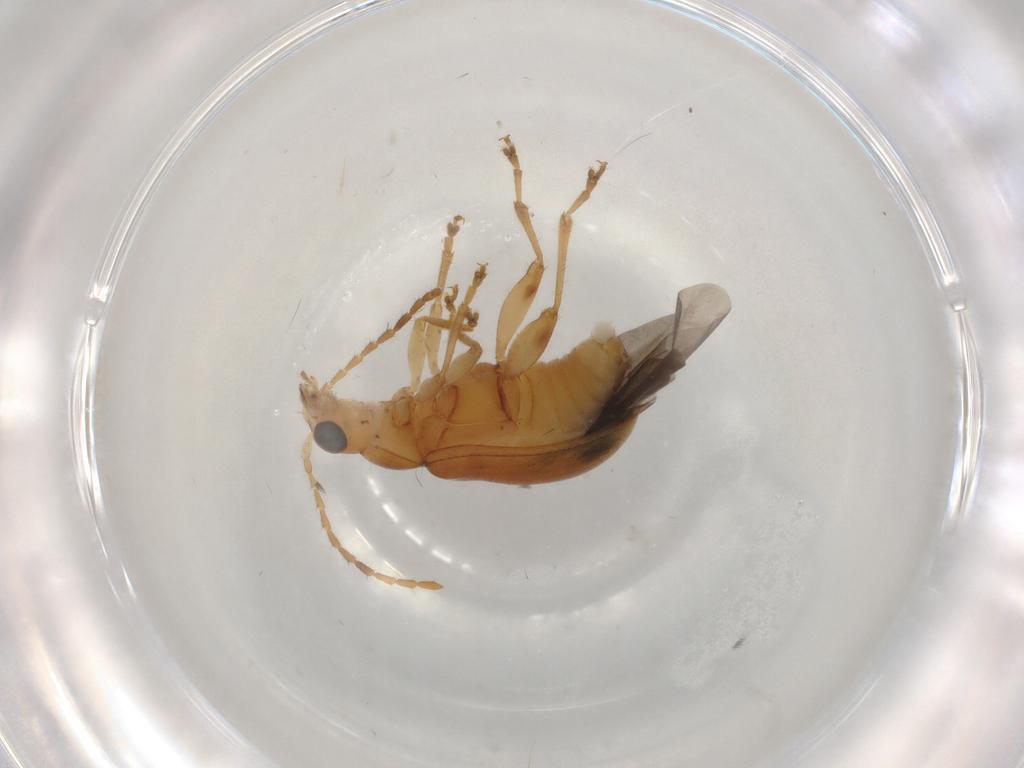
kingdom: Animalia
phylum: Arthropoda
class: Insecta
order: Coleoptera
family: Chrysomelidae
